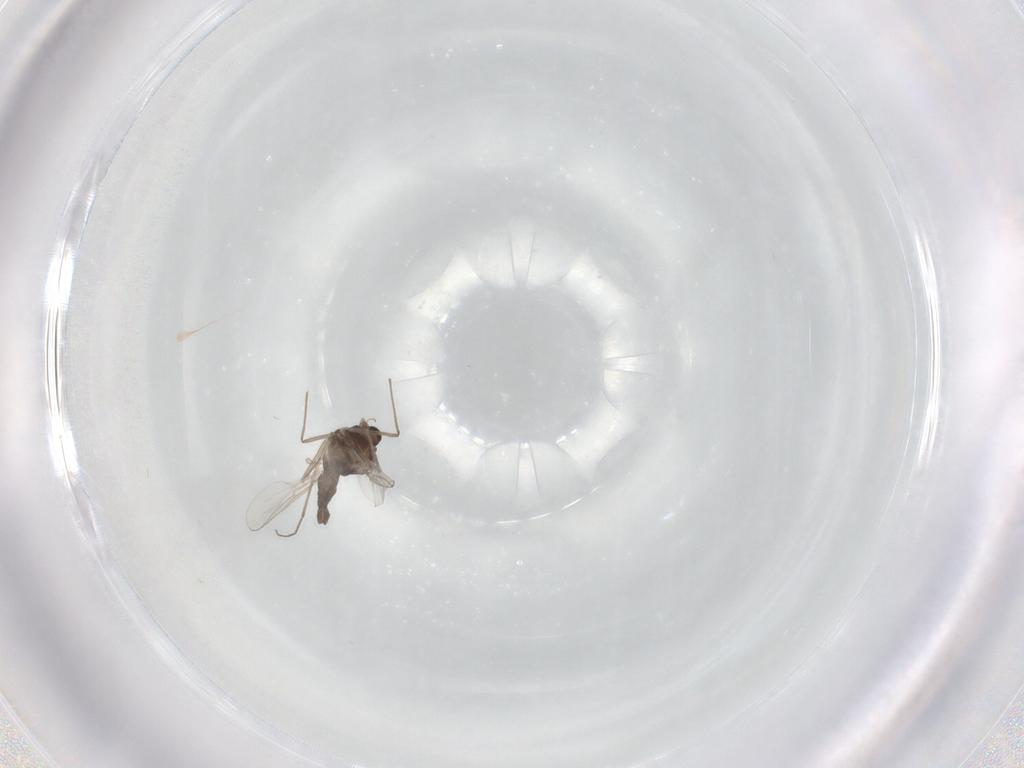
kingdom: Animalia
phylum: Arthropoda
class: Insecta
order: Diptera
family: Chironomidae
